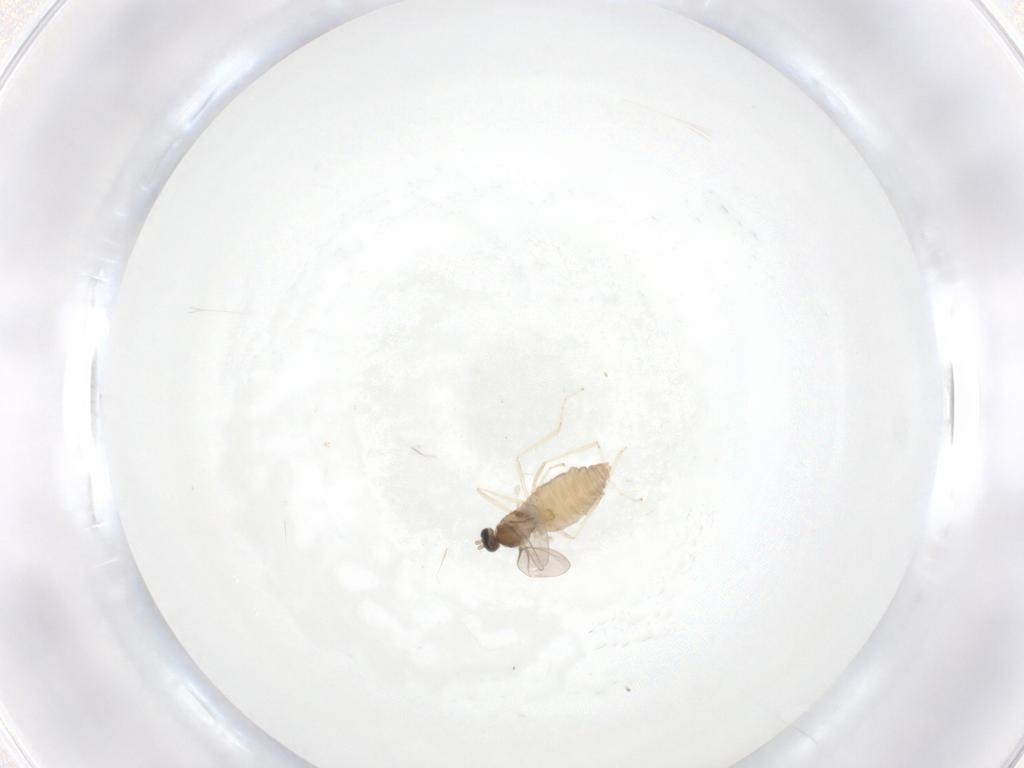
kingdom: Animalia
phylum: Arthropoda
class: Insecta
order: Diptera
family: Cecidomyiidae
